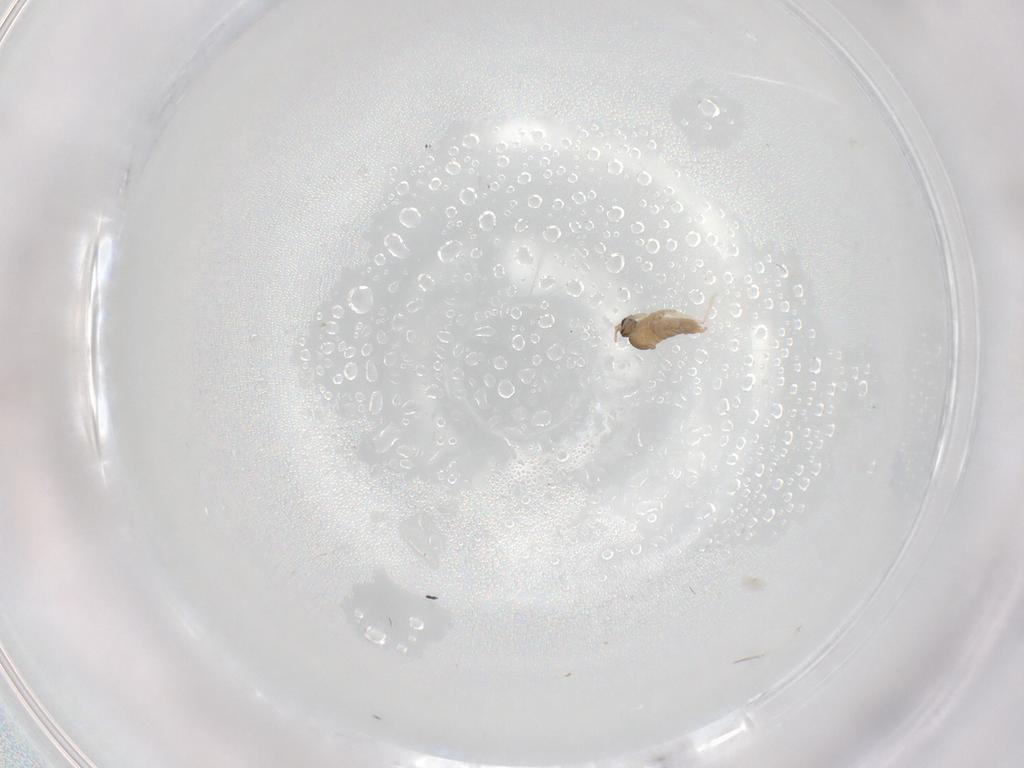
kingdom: Animalia
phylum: Arthropoda
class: Insecta
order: Diptera
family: Cecidomyiidae
